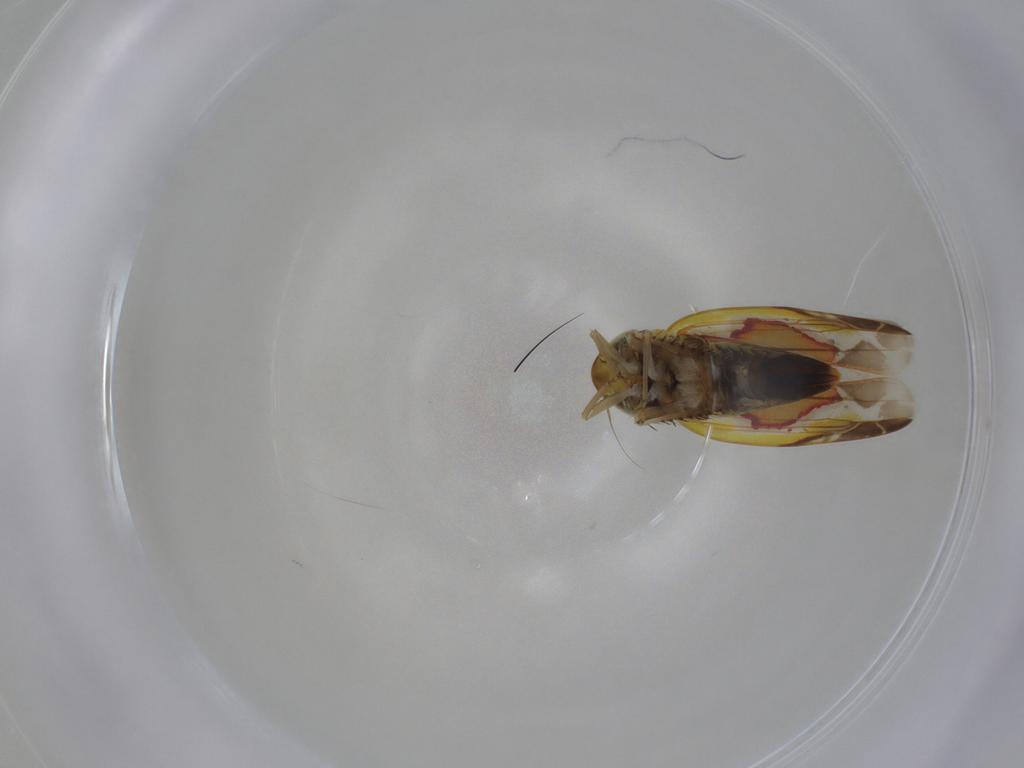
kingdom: Animalia
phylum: Arthropoda
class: Insecta
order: Hemiptera
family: Cicadellidae
